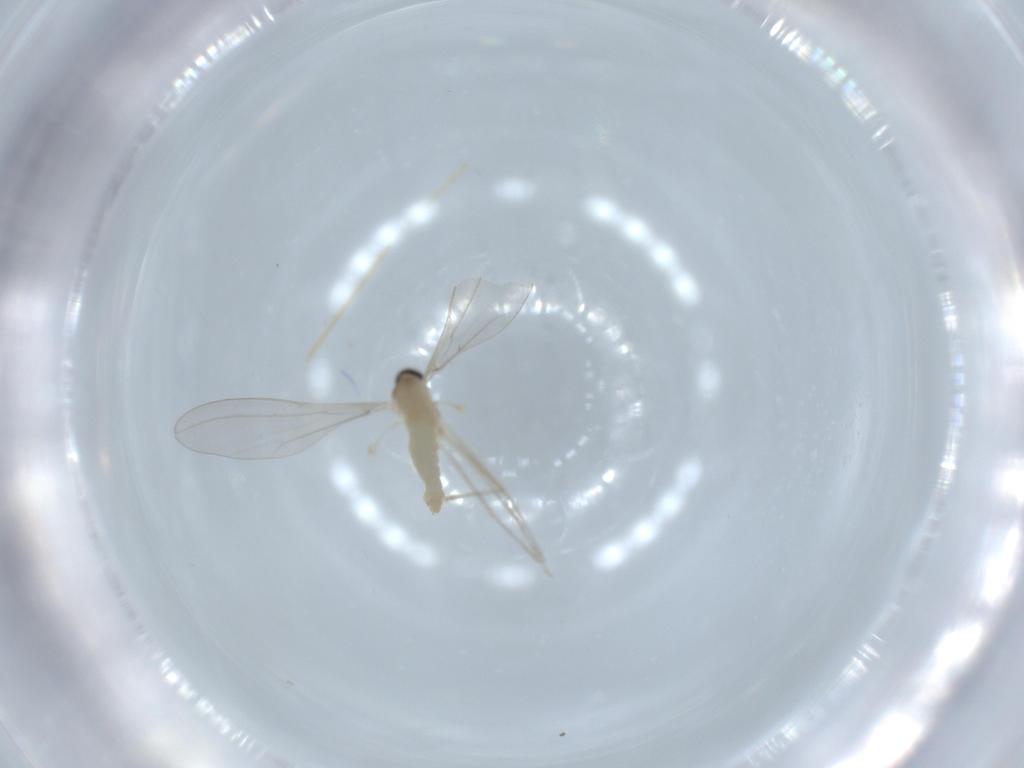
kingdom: Animalia
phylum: Arthropoda
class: Insecta
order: Diptera
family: Cecidomyiidae
